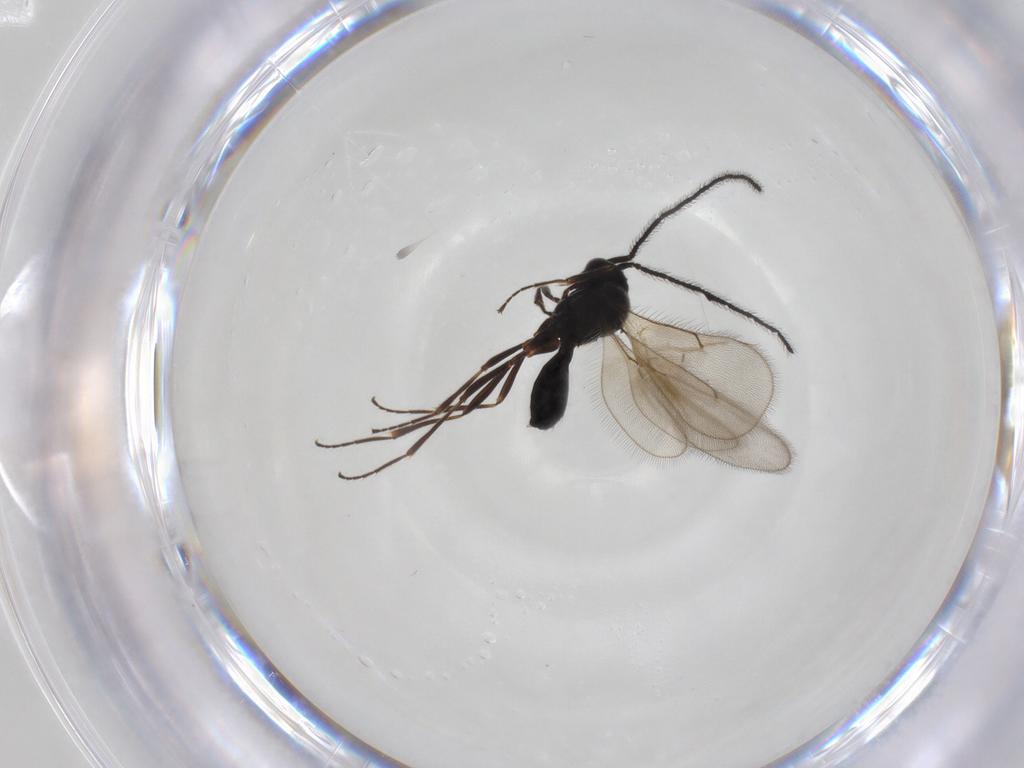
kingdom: Animalia
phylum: Arthropoda
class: Insecta
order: Hymenoptera
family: Scelionidae
